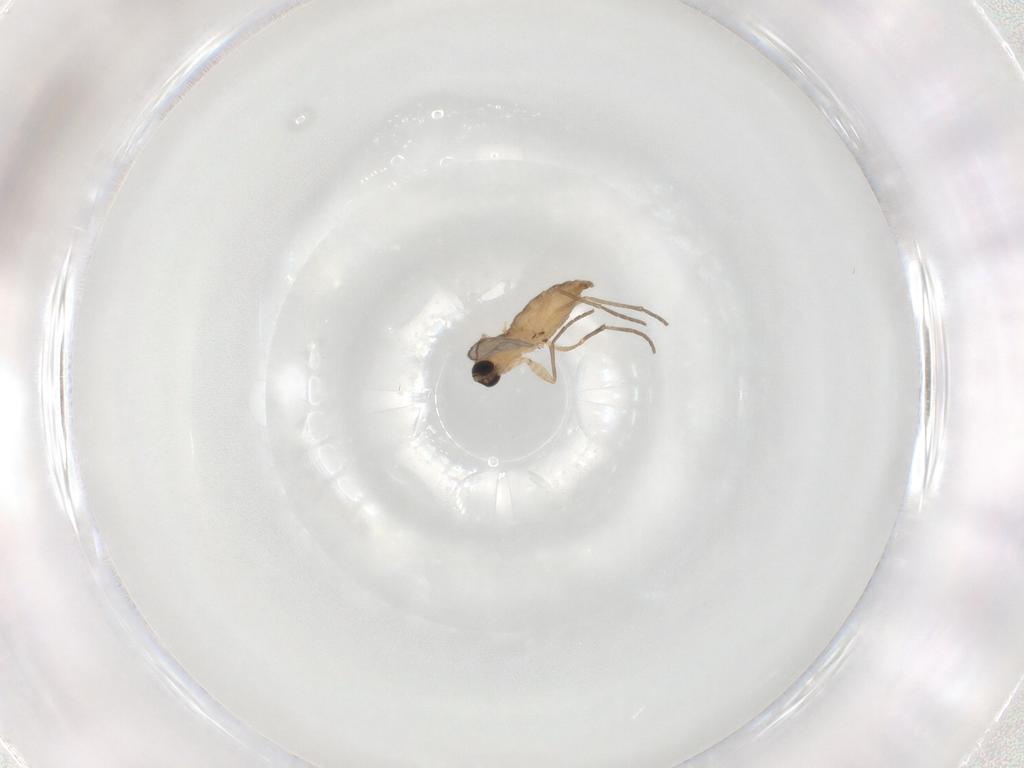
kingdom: Animalia
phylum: Arthropoda
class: Insecta
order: Diptera
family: Sciaridae
